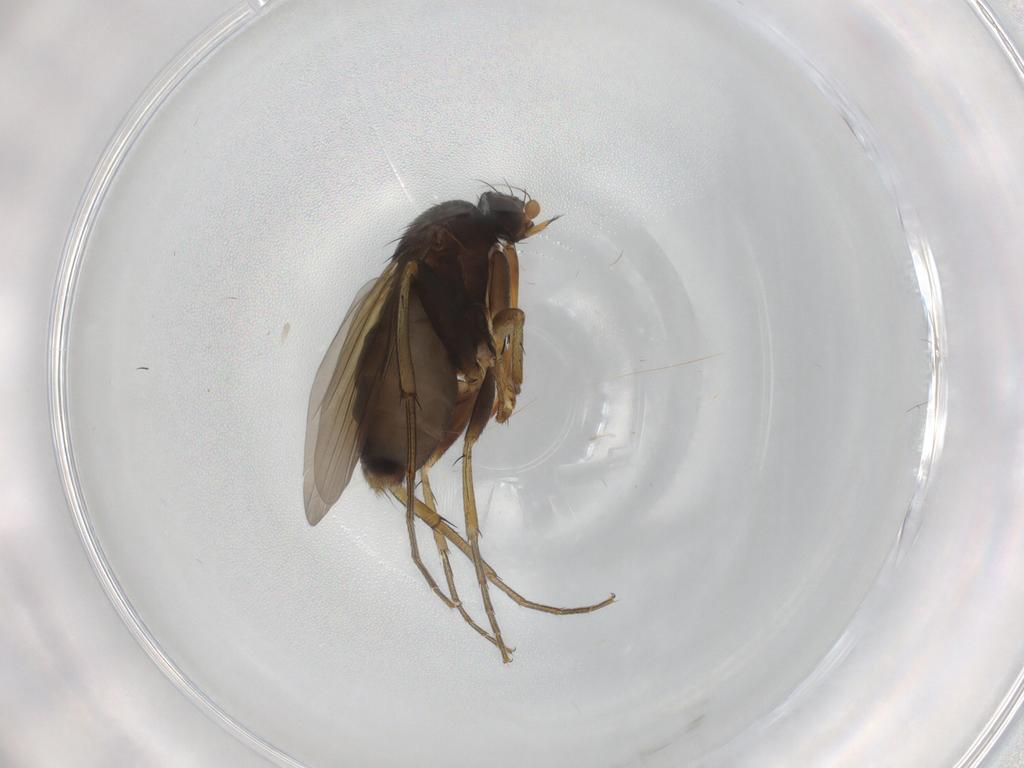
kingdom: Animalia
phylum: Arthropoda
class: Insecta
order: Diptera
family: Phoridae
